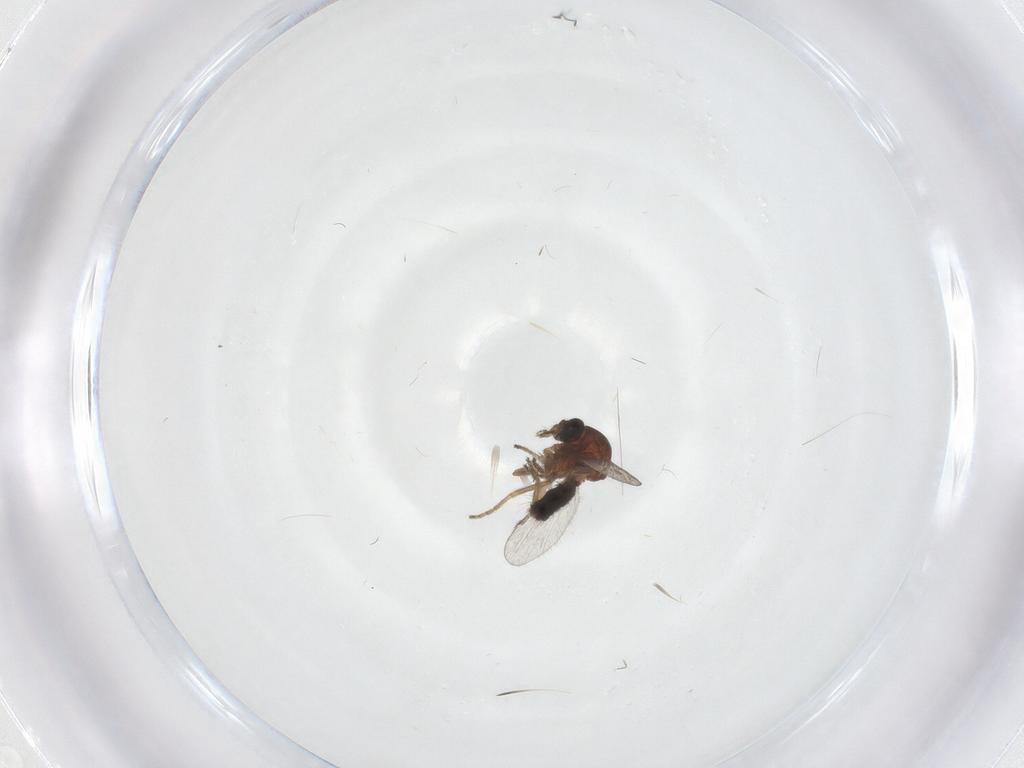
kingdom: Animalia
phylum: Arthropoda
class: Insecta
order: Diptera
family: Ceratopogonidae
